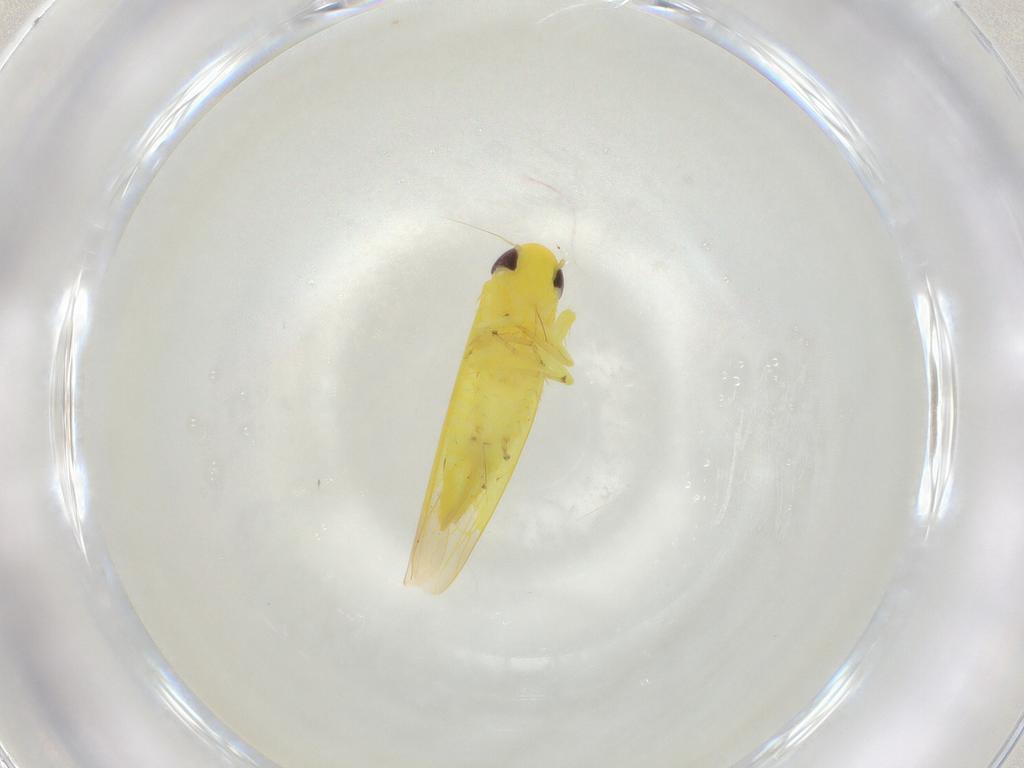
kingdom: Animalia
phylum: Arthropoda
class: Insecta
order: Hemiptera
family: Cicadellidae
